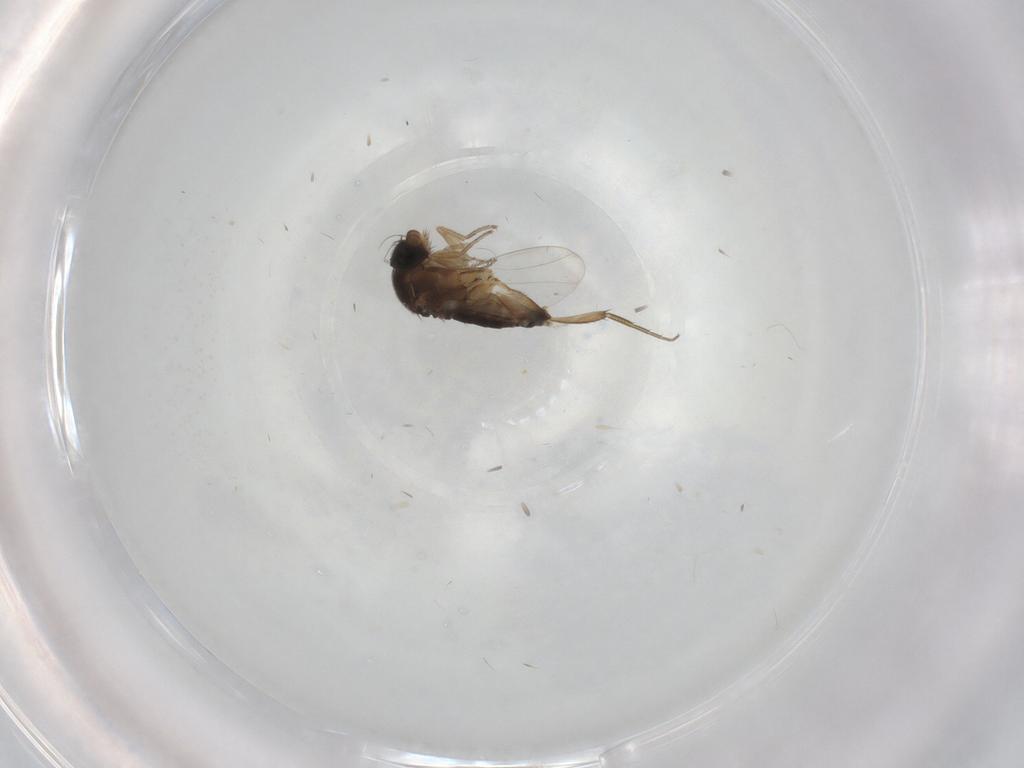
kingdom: Animalia
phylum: Arthropoda
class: Insecta
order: Diptera
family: Phoridae
